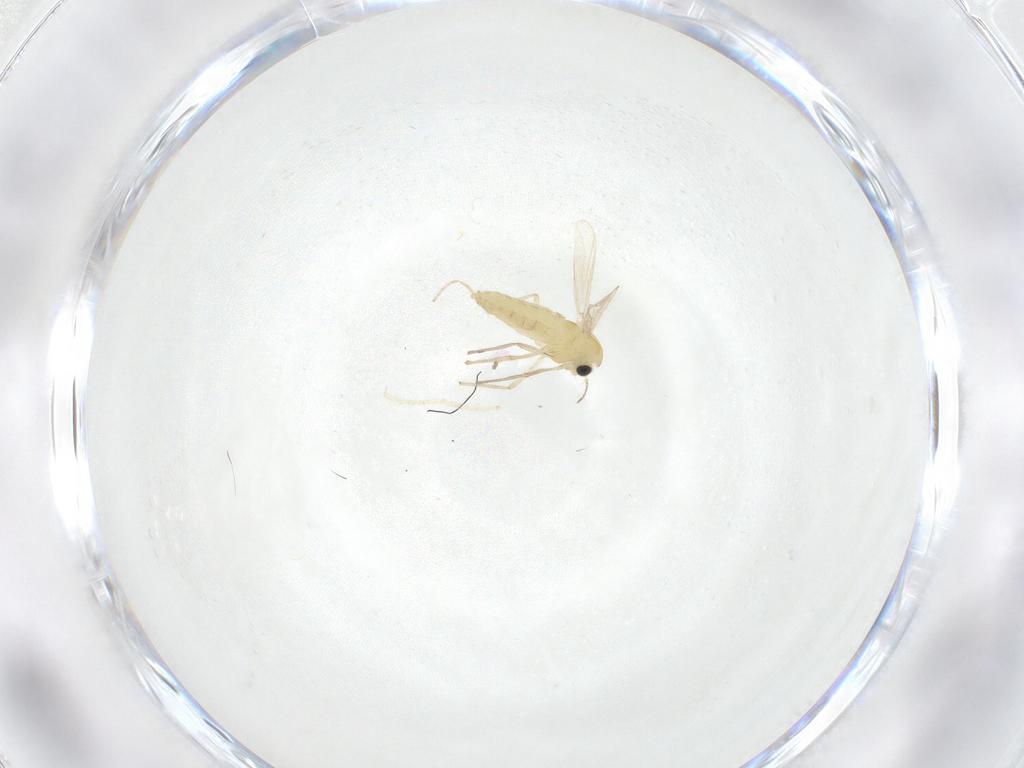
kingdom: Animalia
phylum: Arthropoda
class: Insecta
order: Diptera
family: Chironomidae
